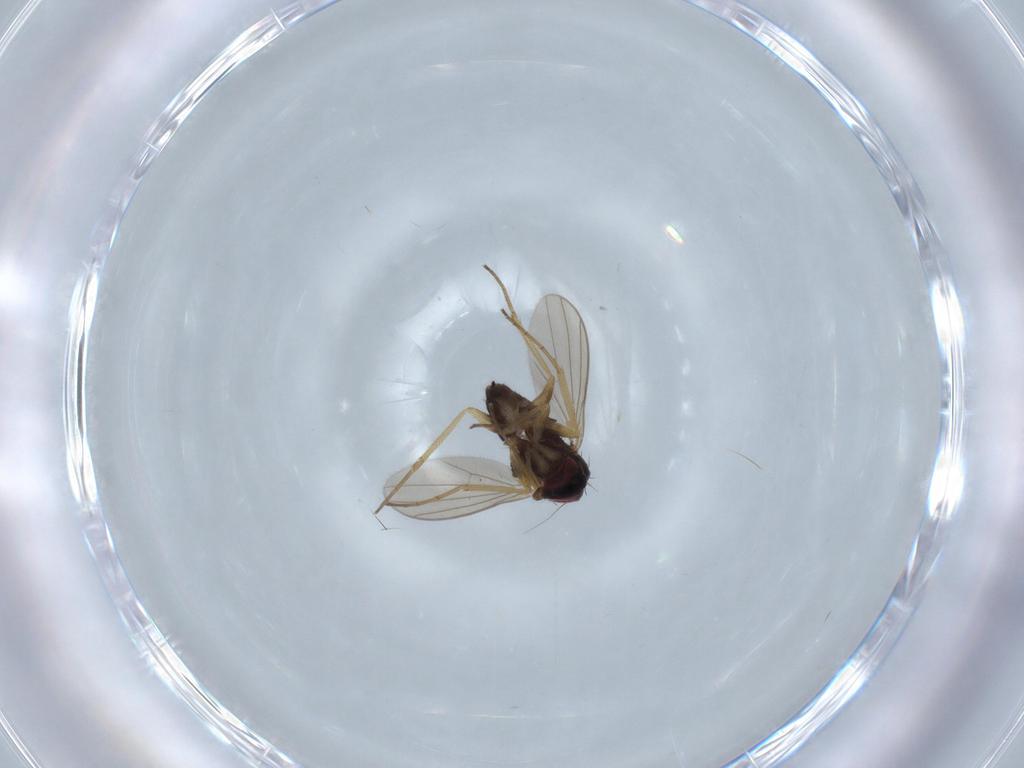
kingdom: Animalia
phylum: Arthropoda
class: Insecta
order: Diptera
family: Dolichopodidae
